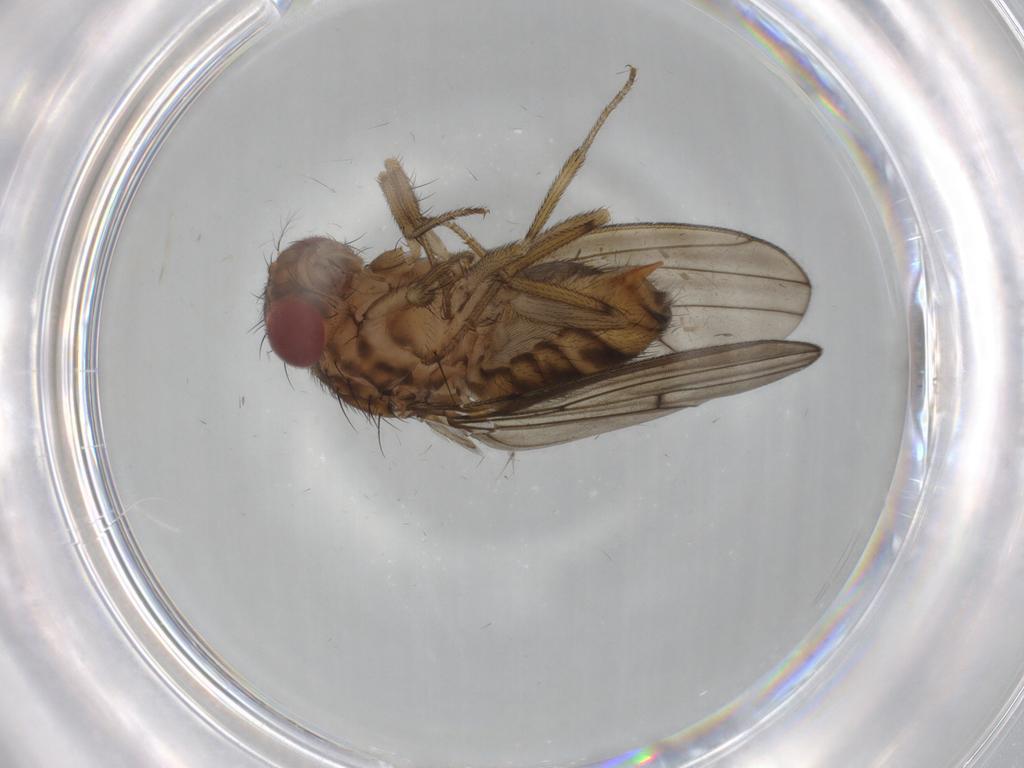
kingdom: Animalia
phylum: Arthropoda
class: Insecta
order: Diptera
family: Drosophilidae
